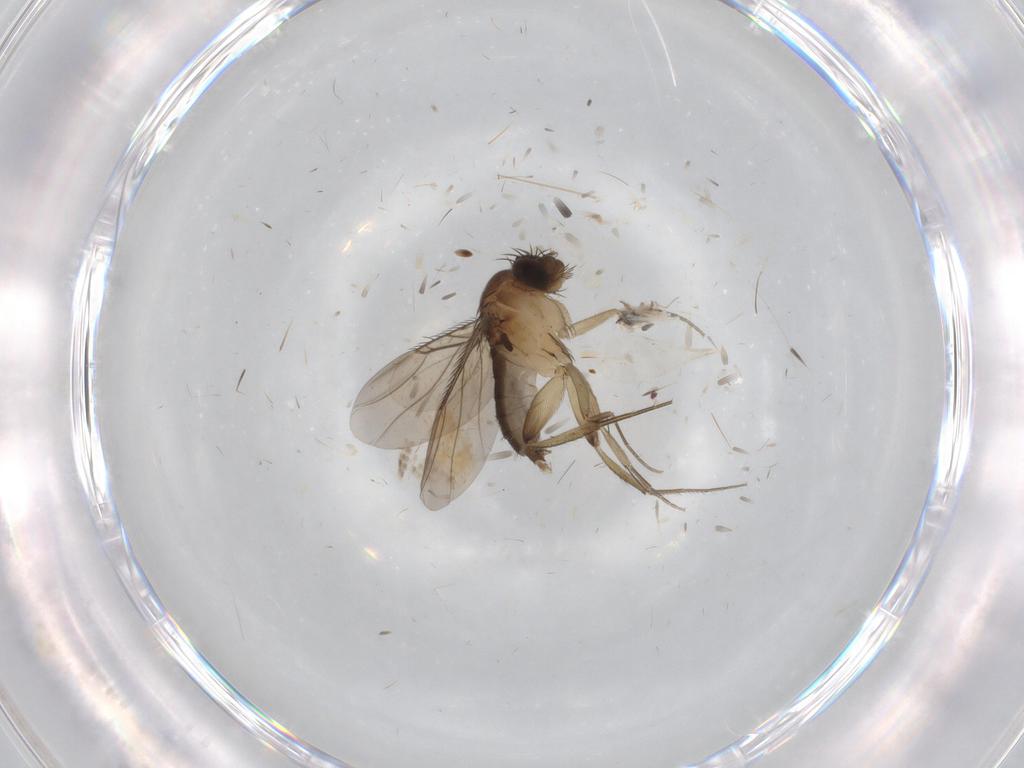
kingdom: Animalia
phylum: Arthropoda
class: Insecta
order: Diptera
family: Phoridae
